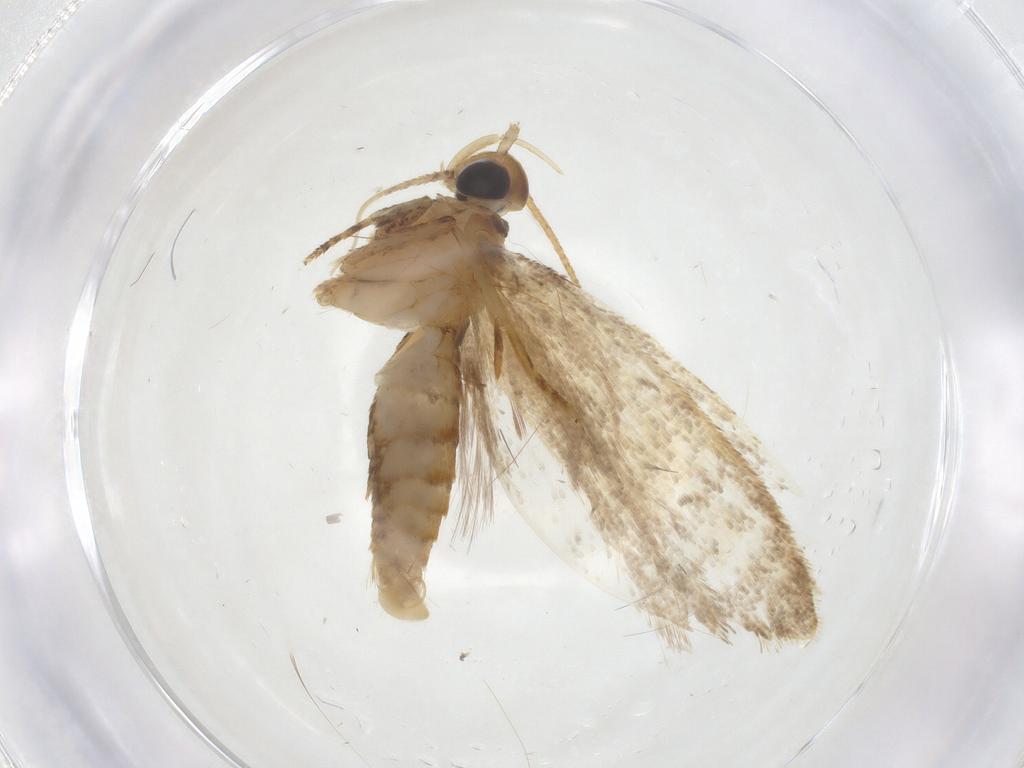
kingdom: Animalia
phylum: Arthropoda
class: Insecta
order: Lepidoptera
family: Oecophoridae
